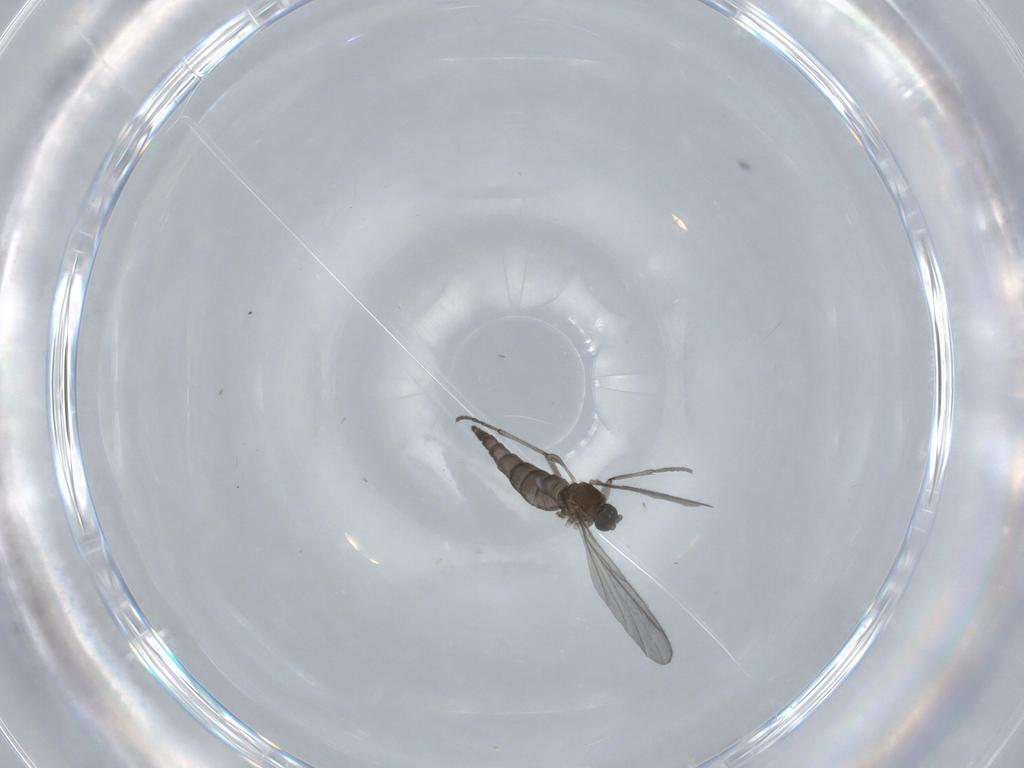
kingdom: Animalia
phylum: Arthropoda
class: Insecta
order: Diptera
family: Sciaridae
